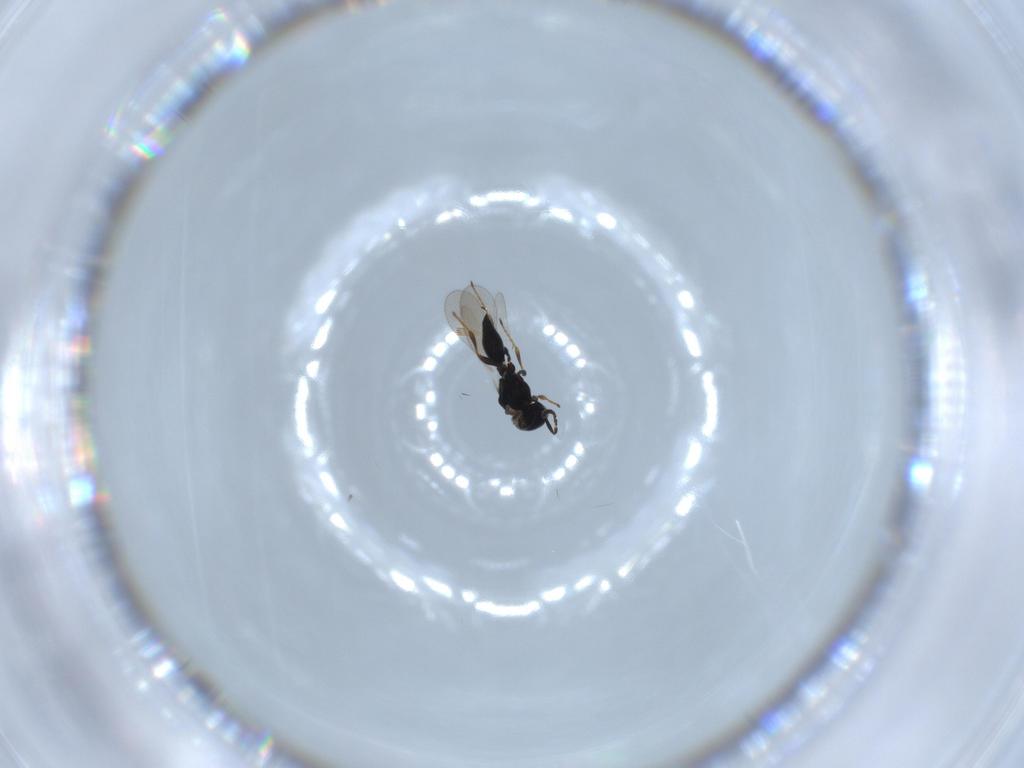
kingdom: Animalia
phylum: Arthropoda
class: Insecta
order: Hymenoptera
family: Platygastridae
